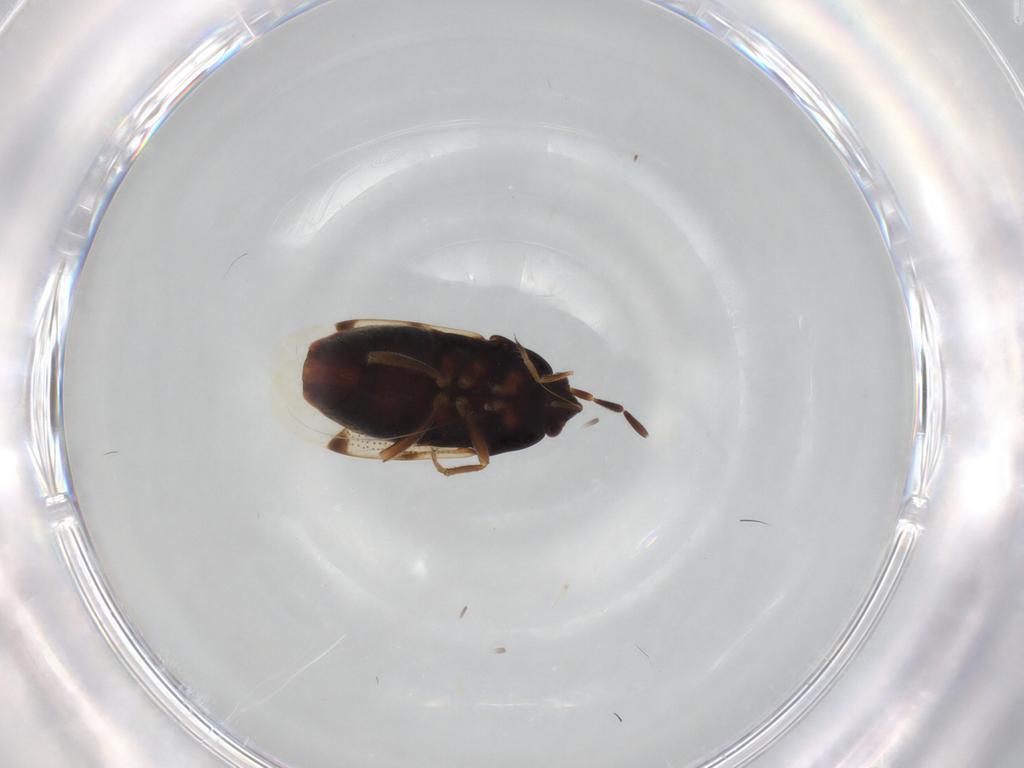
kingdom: Animalia
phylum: Arthropoda
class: Insecta
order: Hemiptera
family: Rhyparochromidae
